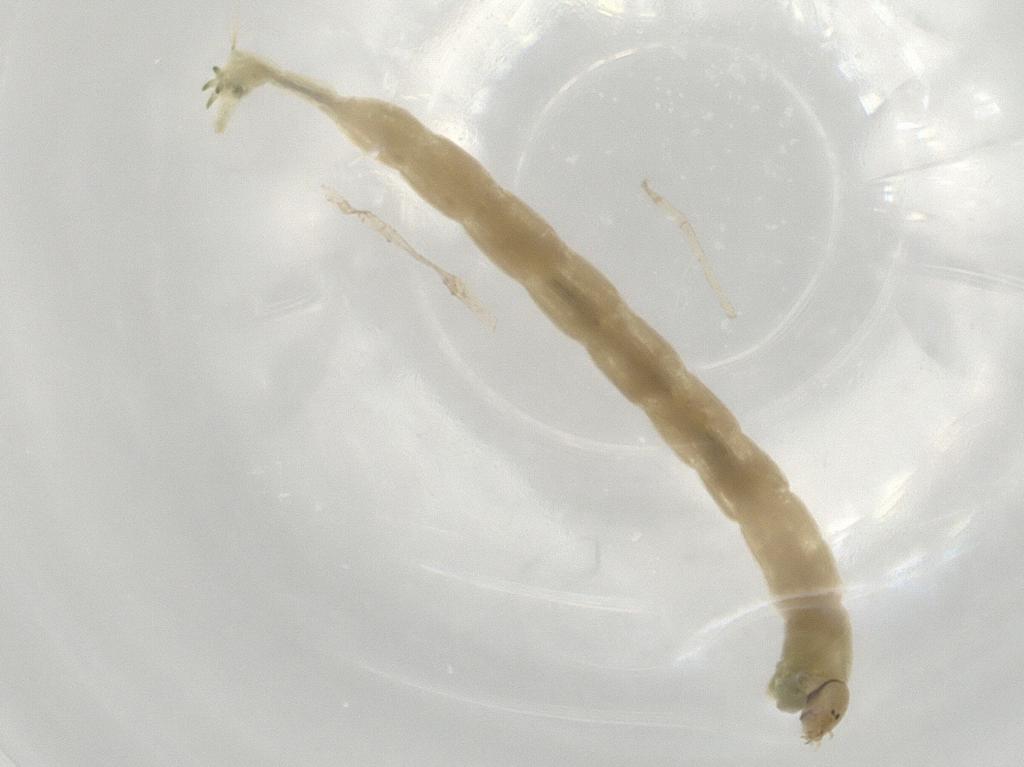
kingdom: Animalia
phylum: Arthropoda
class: Insecta
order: Diptera
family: Chironomidae
